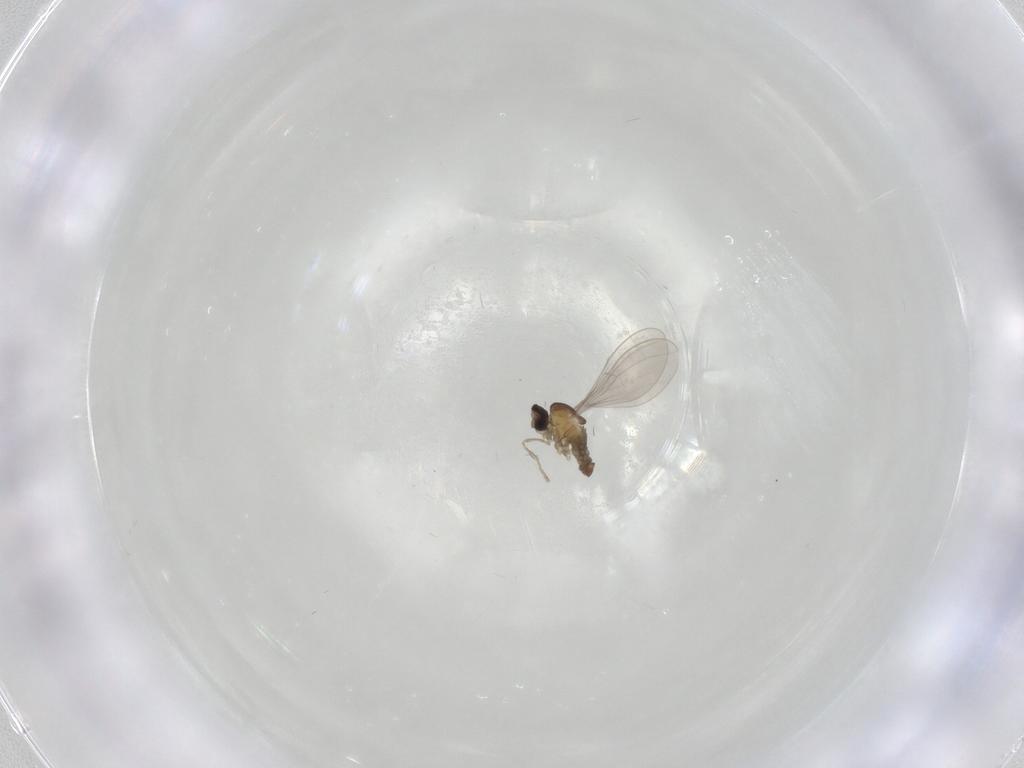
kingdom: Animalia
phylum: Arthropoda
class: Insecta
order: Diptera
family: Cecidomyiidae
